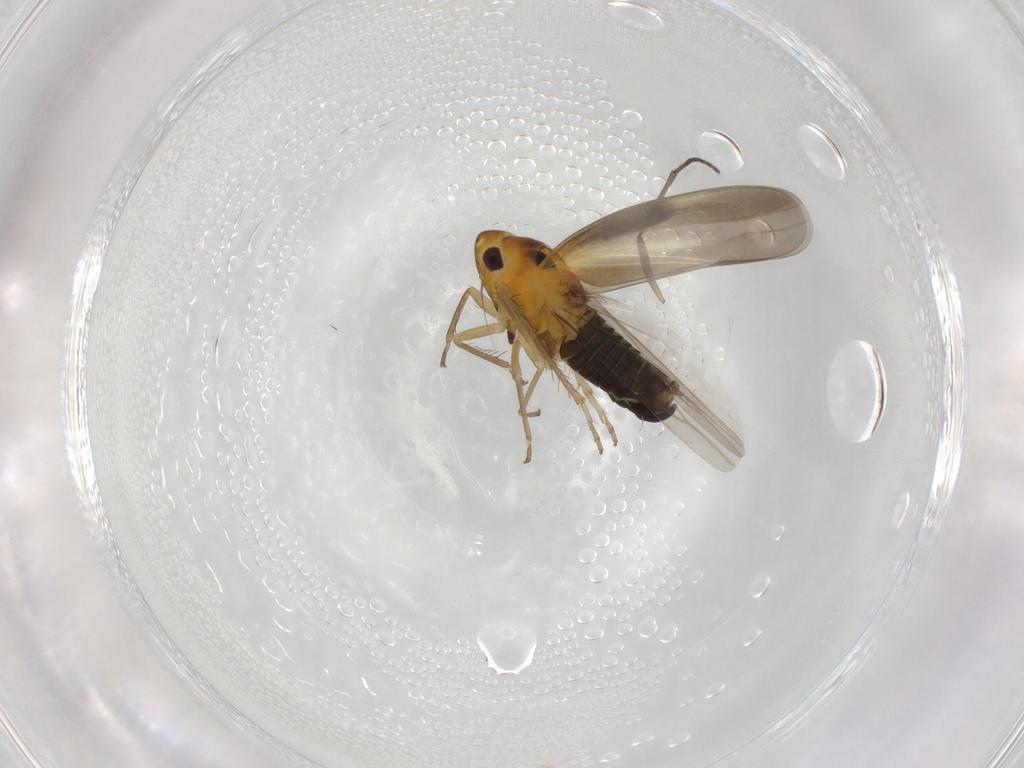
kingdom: Animalia
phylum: Arthropoda
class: Insecta
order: Hemiptera
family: Cicadellidae
